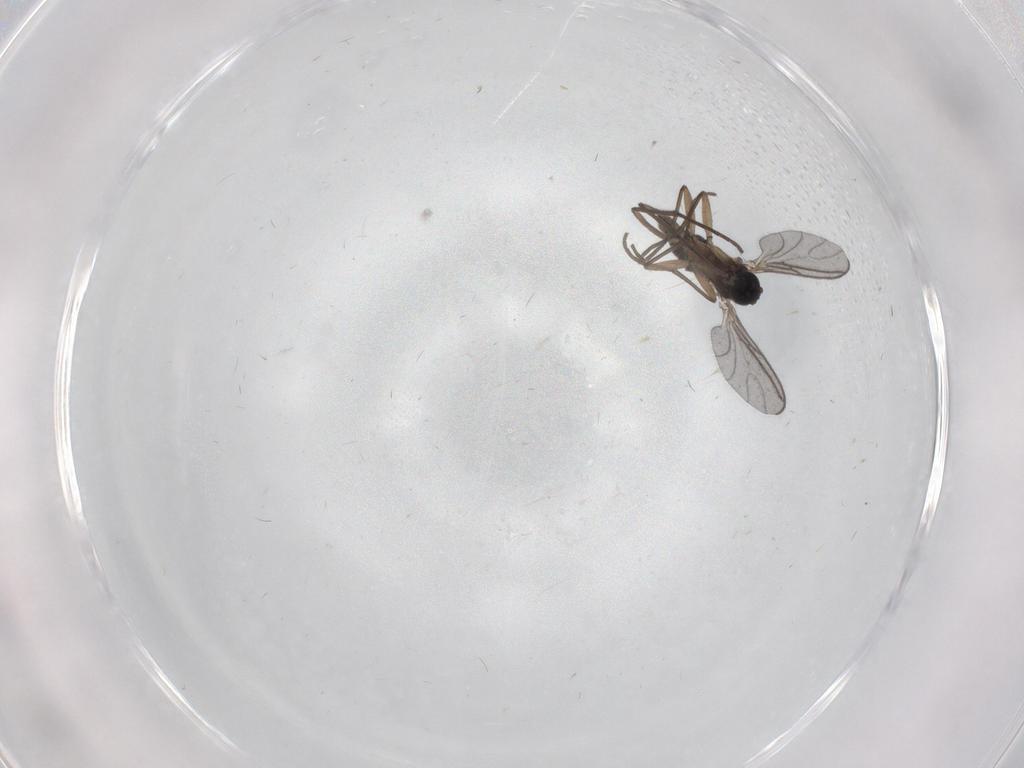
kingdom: Animalia
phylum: Arthropoda
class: Insecta
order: Diptera
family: Sciaridae
